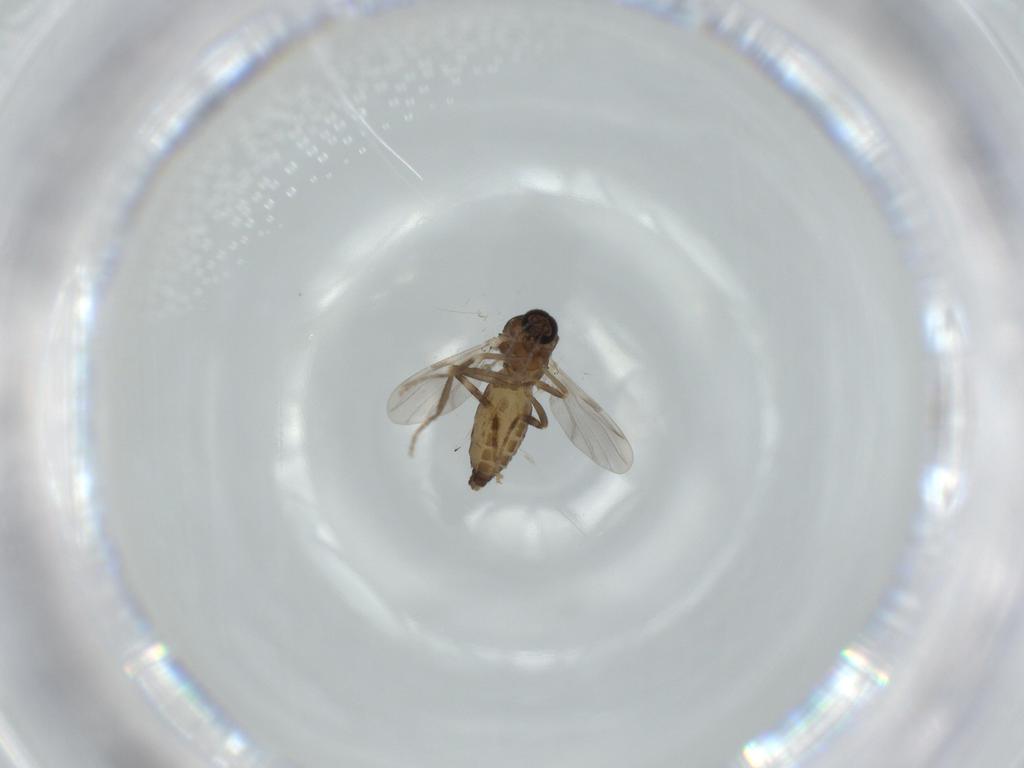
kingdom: Animalia
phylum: Arthropoda
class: Insecta
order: Diptera
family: Ceratopogonidae
